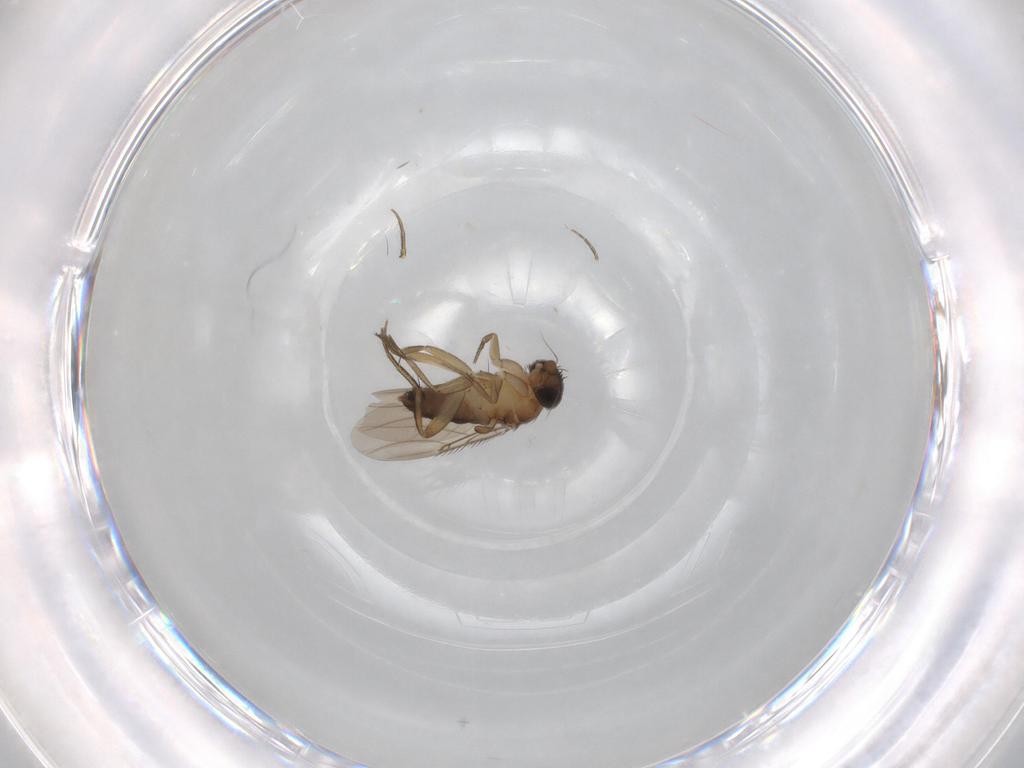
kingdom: Animalia
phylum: Arthropoda
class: Insecta
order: Diptera
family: Phoridae
